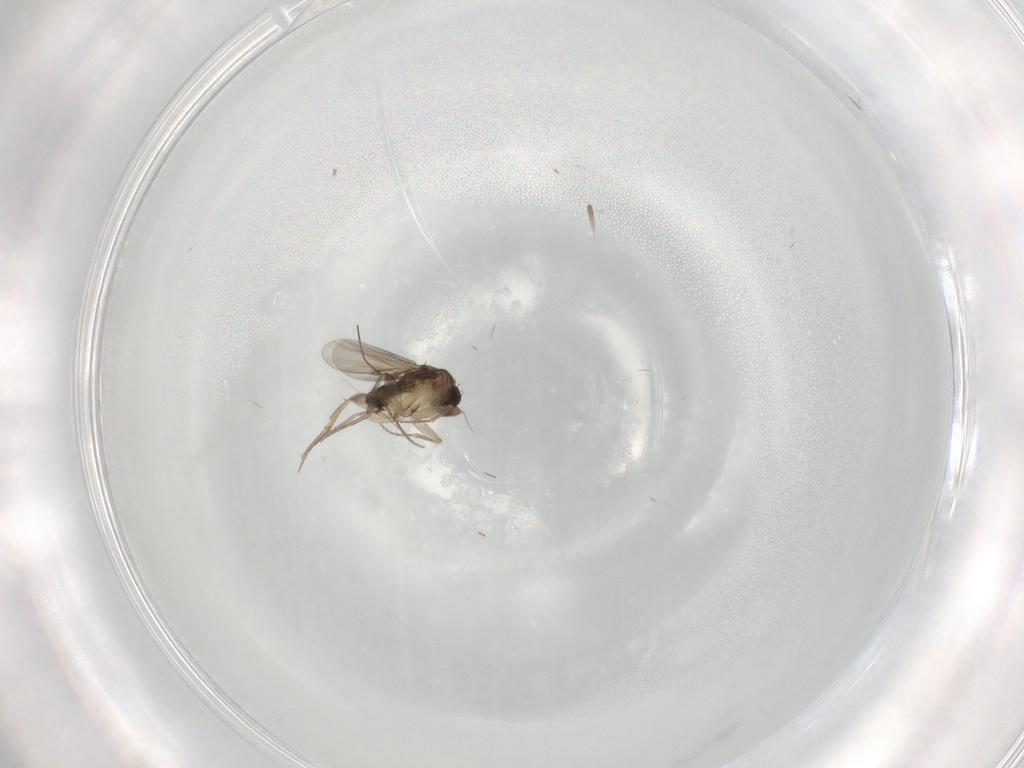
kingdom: Animalia
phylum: Arthropoda
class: Insecta
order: Diptera
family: Phoridae
